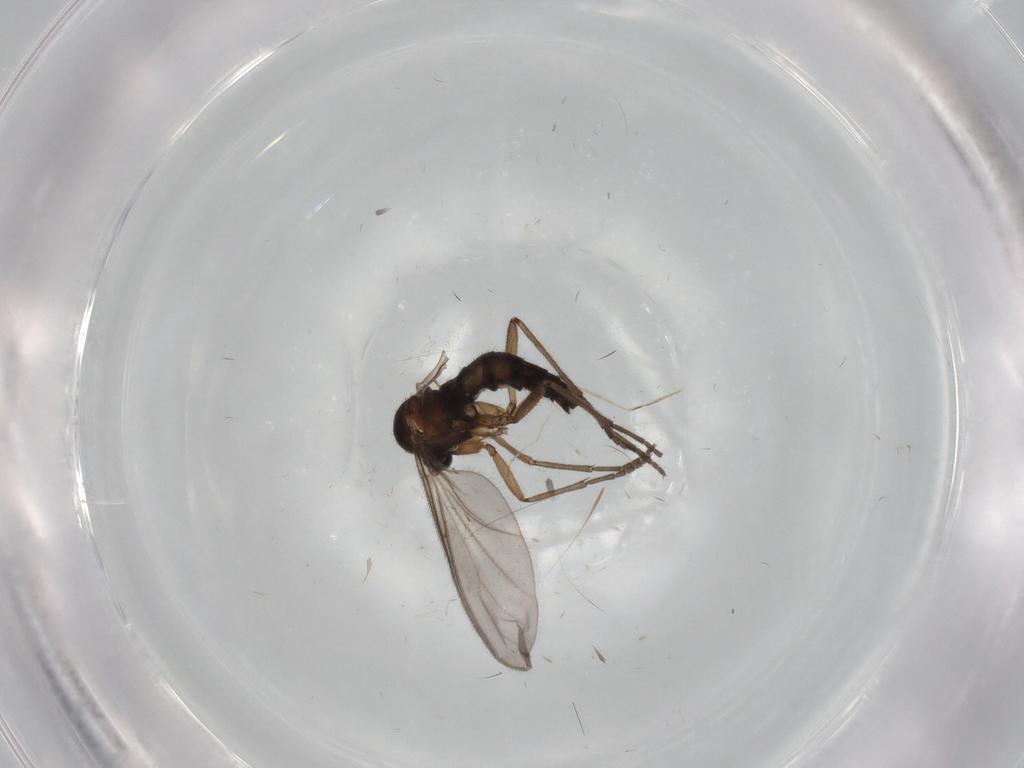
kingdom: Animalia
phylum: Arthropoda
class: Insecta
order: Diptera
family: Sciaridae
